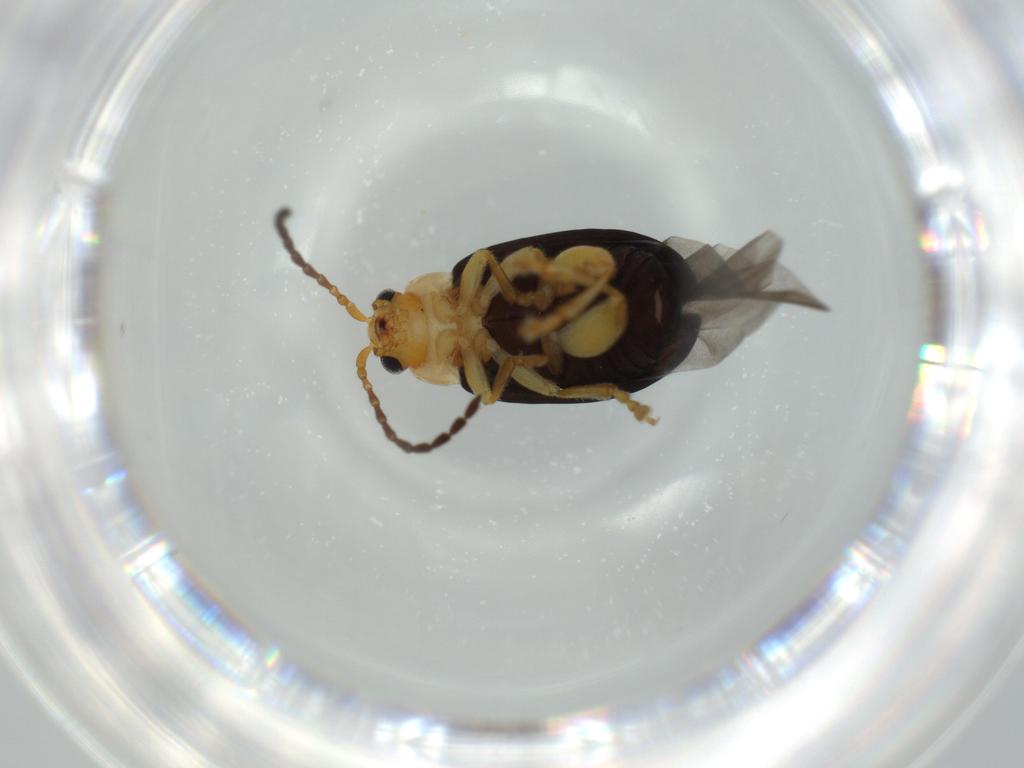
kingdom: Animalia
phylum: Arthropoda
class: Insecta
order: Coleoptera
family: Chrysomelidae
